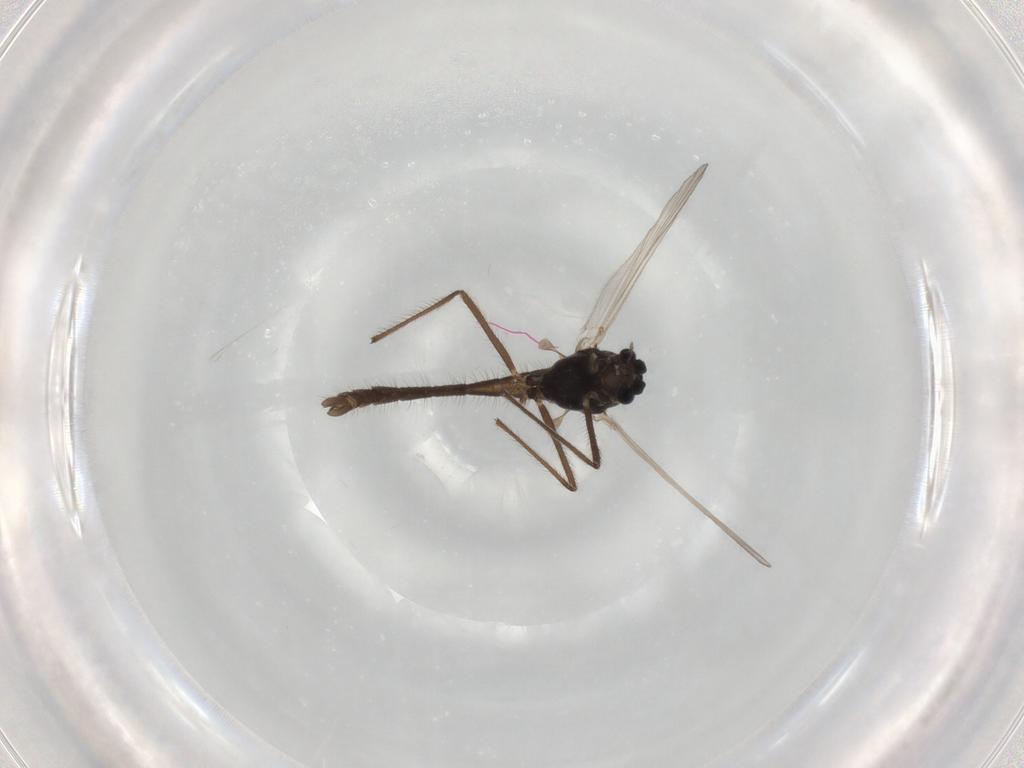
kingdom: Animalia
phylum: Arthropoda
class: Insecta
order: Diptera
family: Chironomidae
